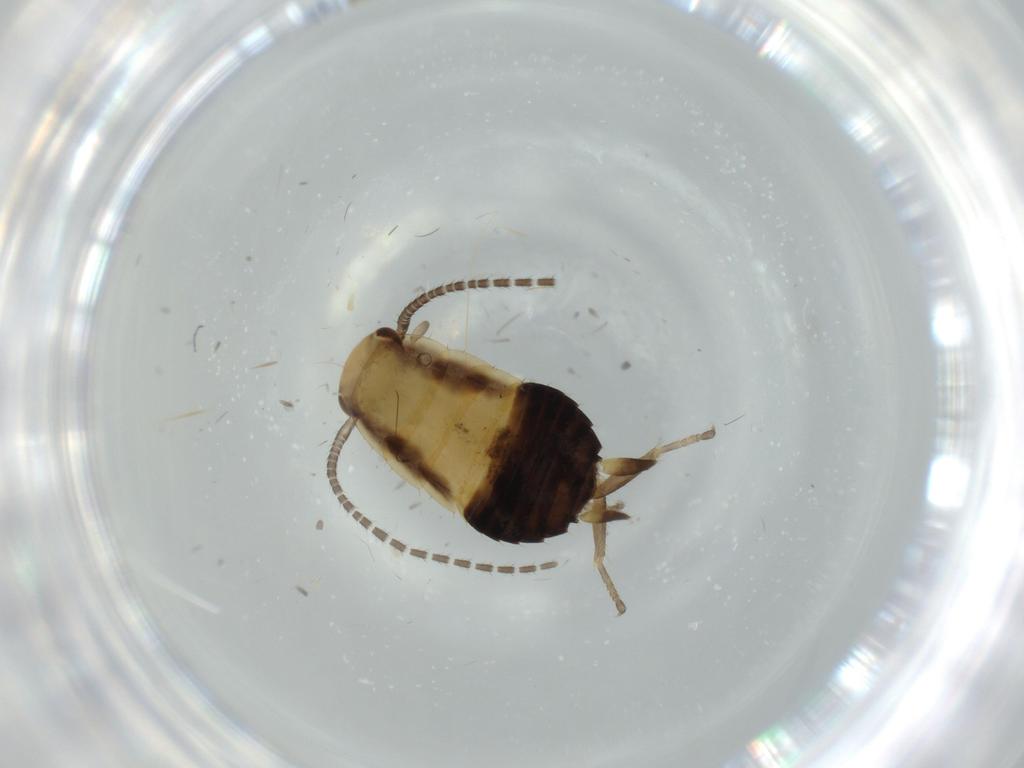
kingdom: Animalia
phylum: Arthropoda
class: Insecta
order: Blattodea
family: Ectobiidae
